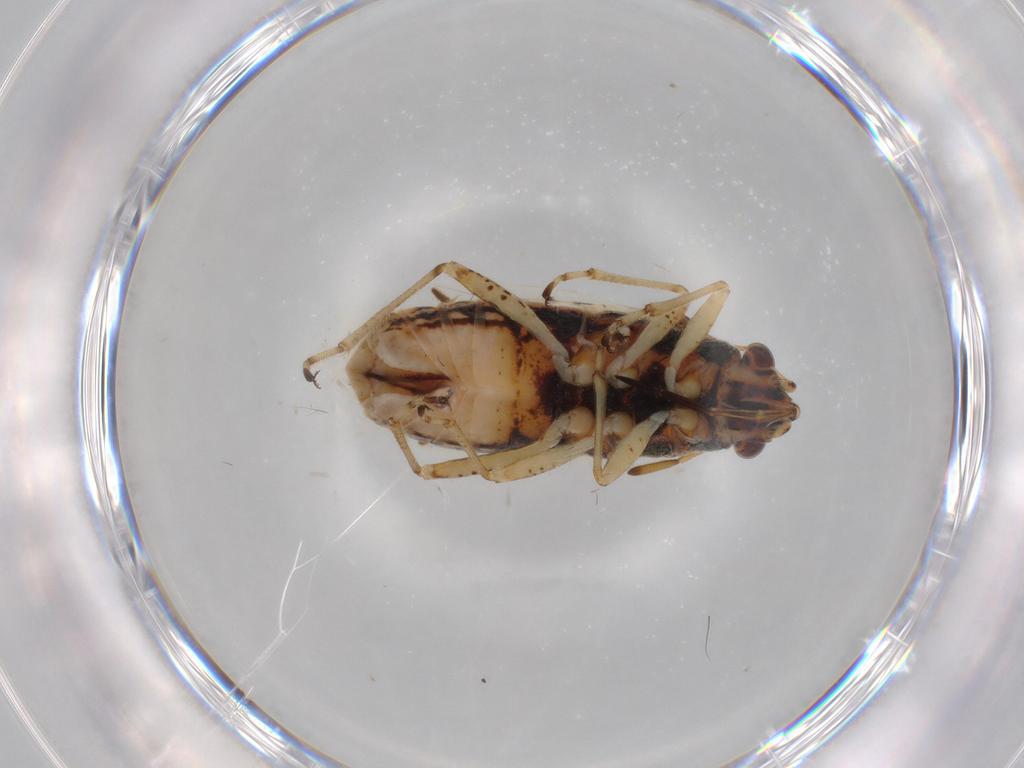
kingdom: Animalia
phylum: Arthropoda
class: Insecta
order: Hemiptera
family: Lygaeidae
